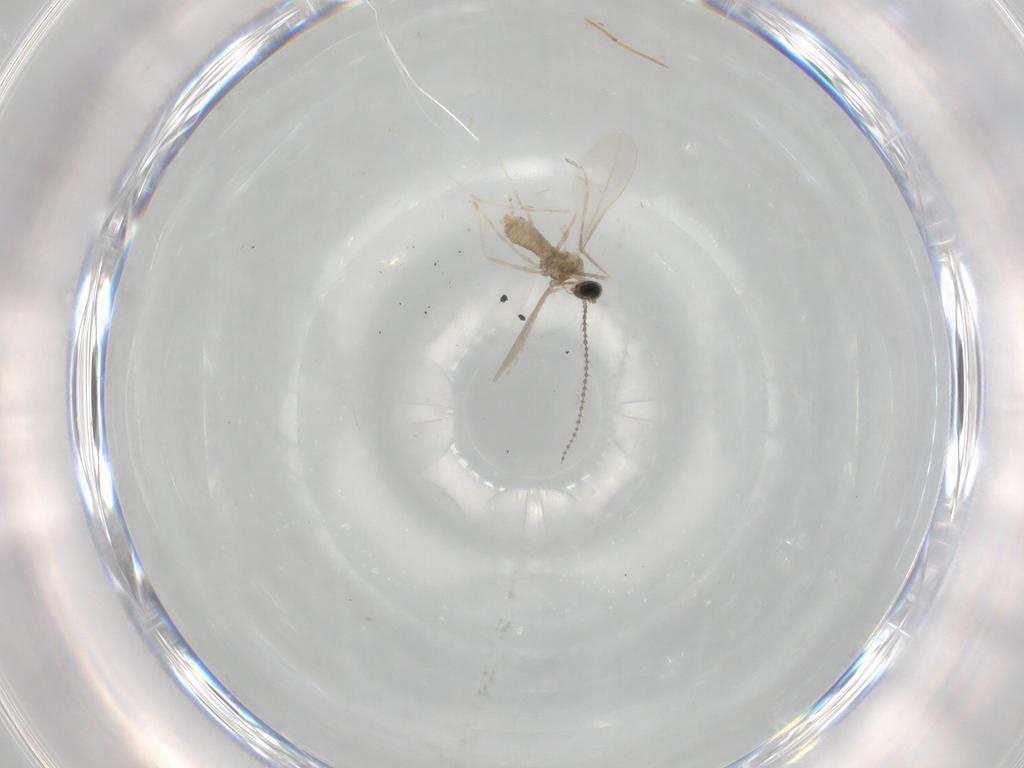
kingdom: Animalia
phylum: Arthropoda
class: Insecta
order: Diptera
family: Cecidomyiidae
